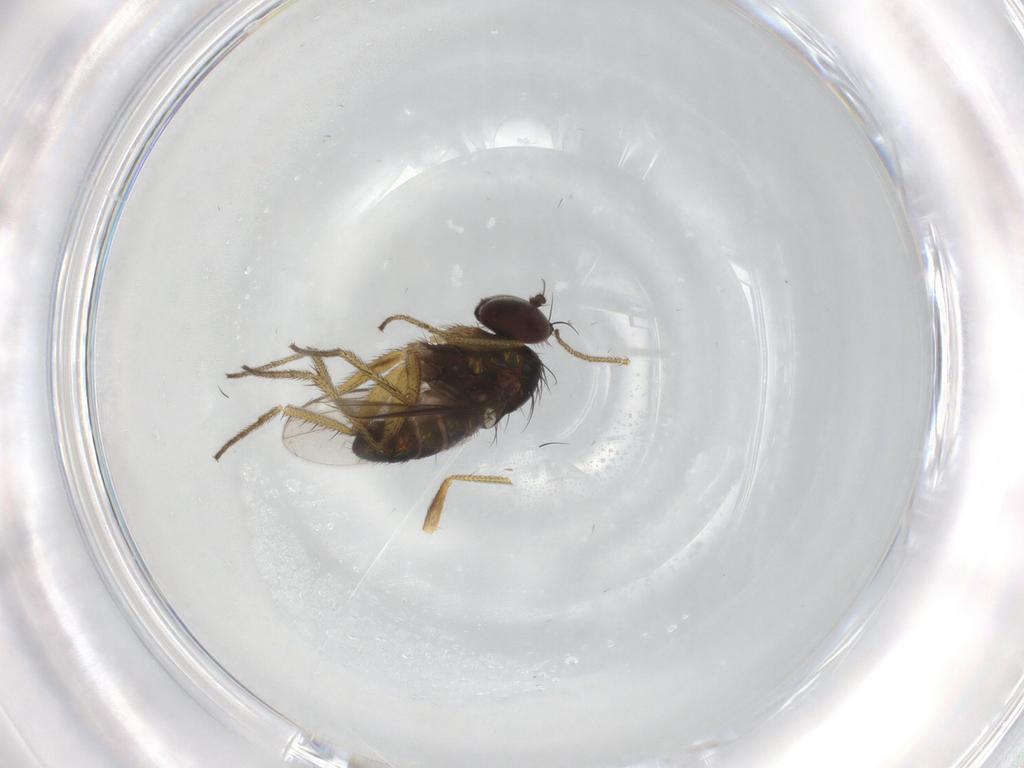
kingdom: Animalia
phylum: Arthropoda
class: Insecta
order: Diptera
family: Dolichopodidae
